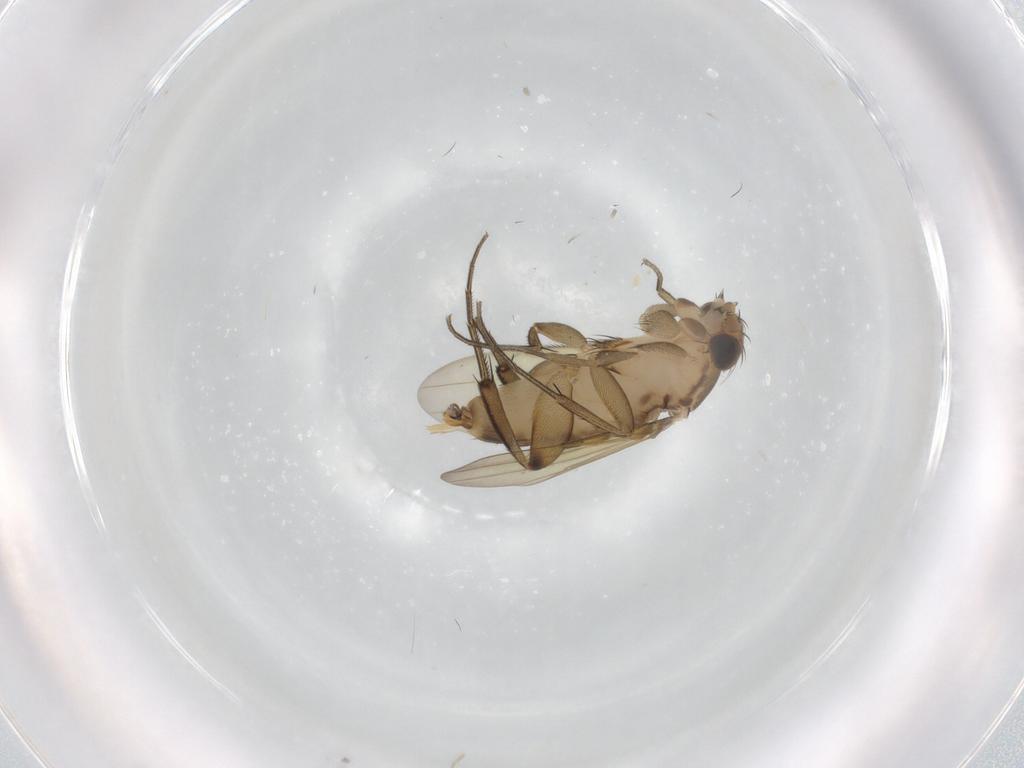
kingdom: Animalia
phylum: Arthropoda
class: Insecta
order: Diptera
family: Phoridae
